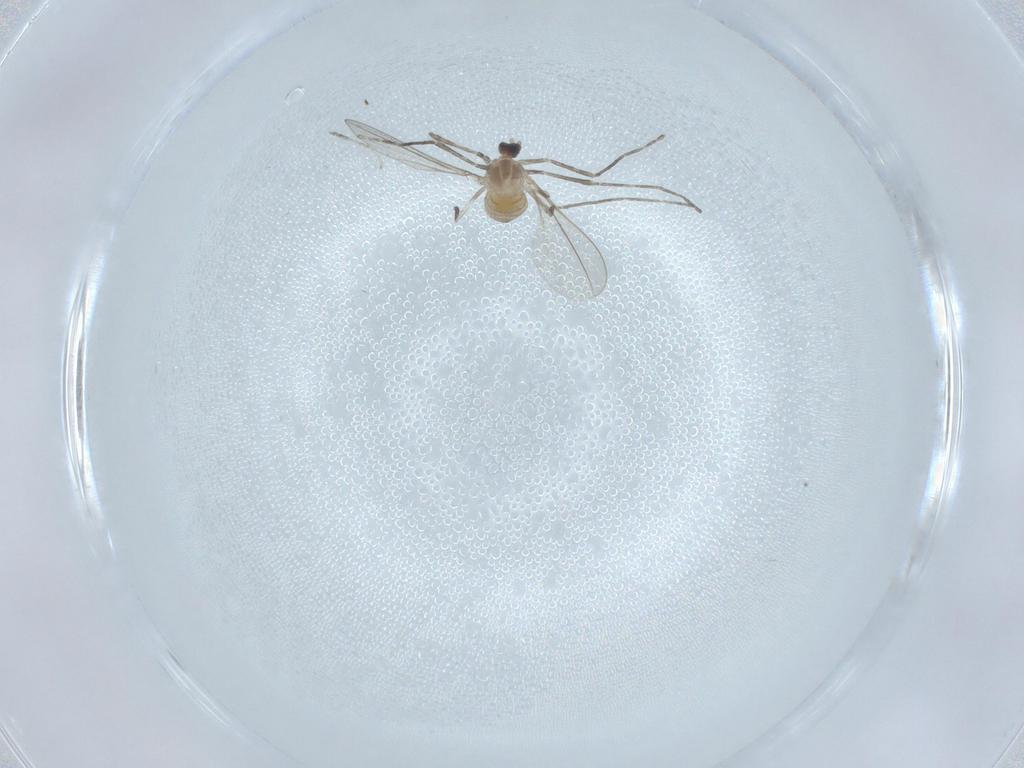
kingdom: Animalia
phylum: Arthropoda
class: Insecta
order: Diptera
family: Cecidomyiidae
